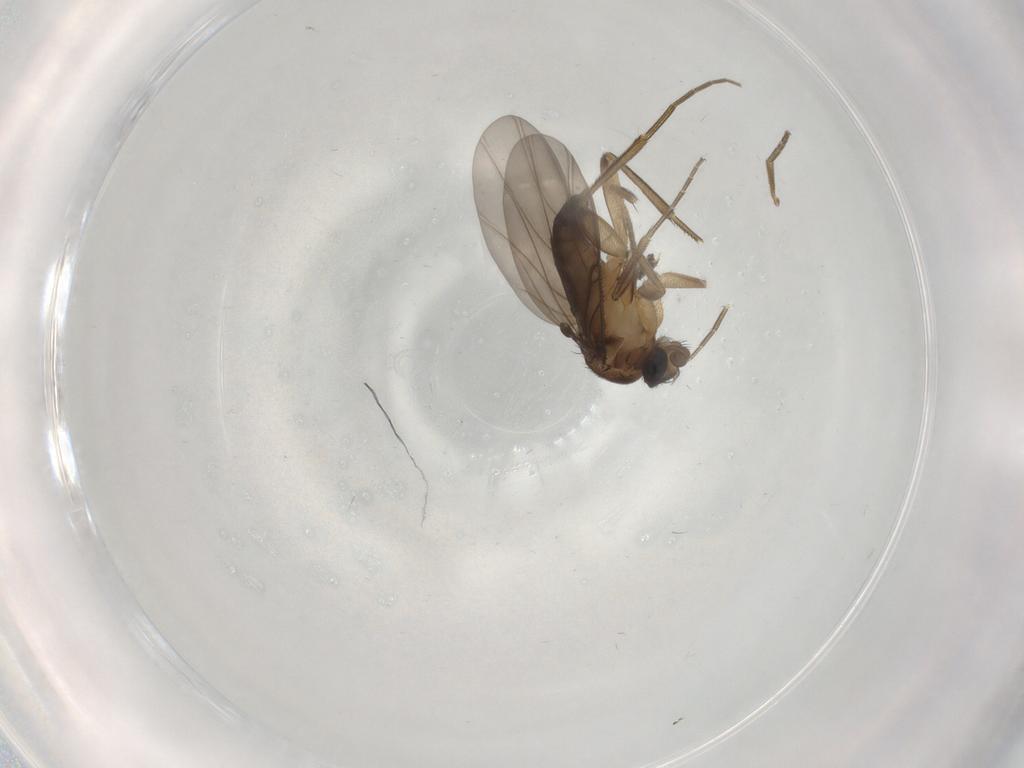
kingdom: Animalia
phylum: Arthropoda
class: Insecta
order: Diptera
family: Phoridae
